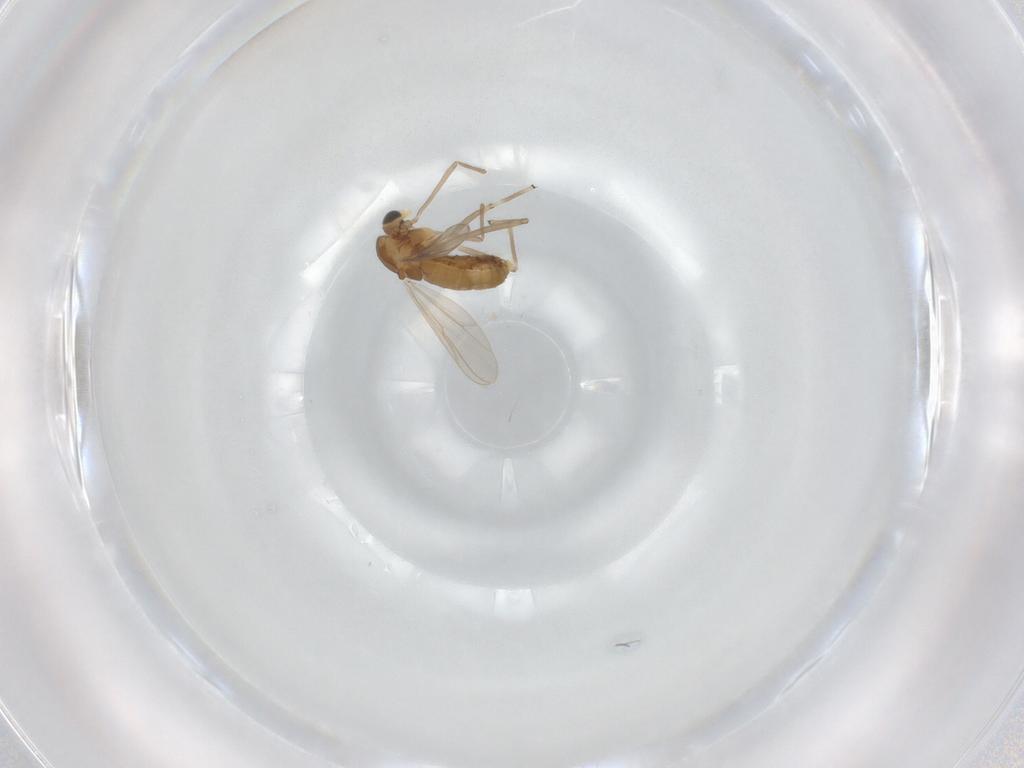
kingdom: Animalia
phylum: Arthropoda
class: Insecta
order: Diptera
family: Chironomidae
